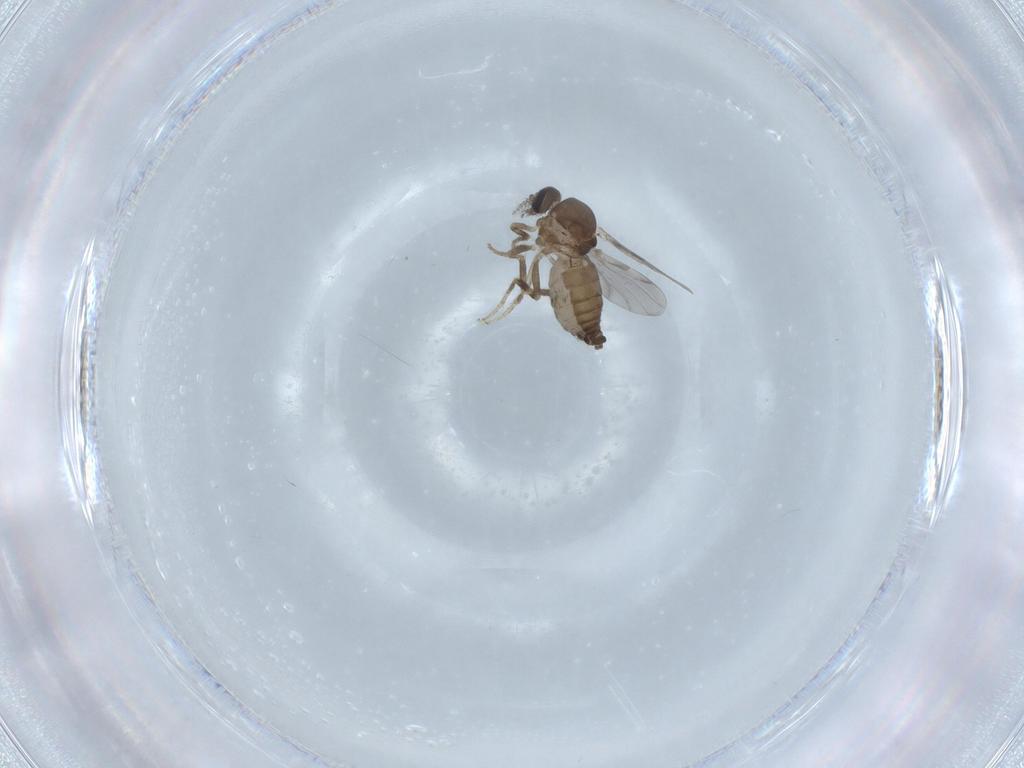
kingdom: Animalia
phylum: Arthropoda
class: Insecta
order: Diptera
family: Ceratopogonidae
